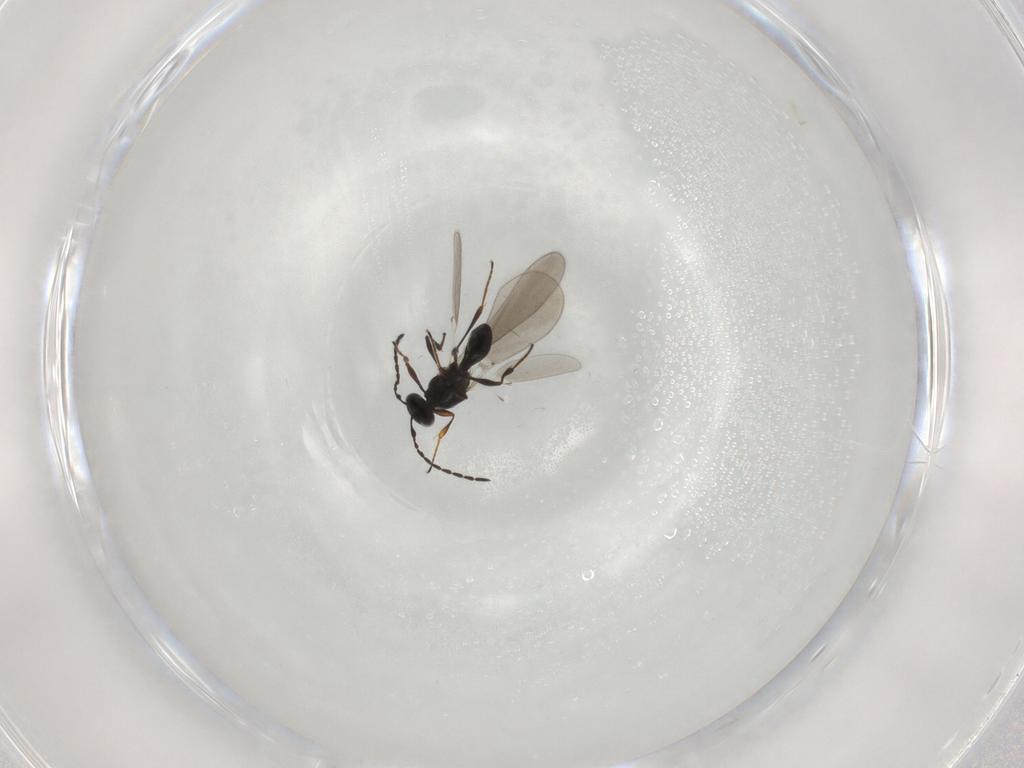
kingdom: Animalia
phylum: Arthropoda
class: Insecta
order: Hymenoptera
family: Platygastridae
